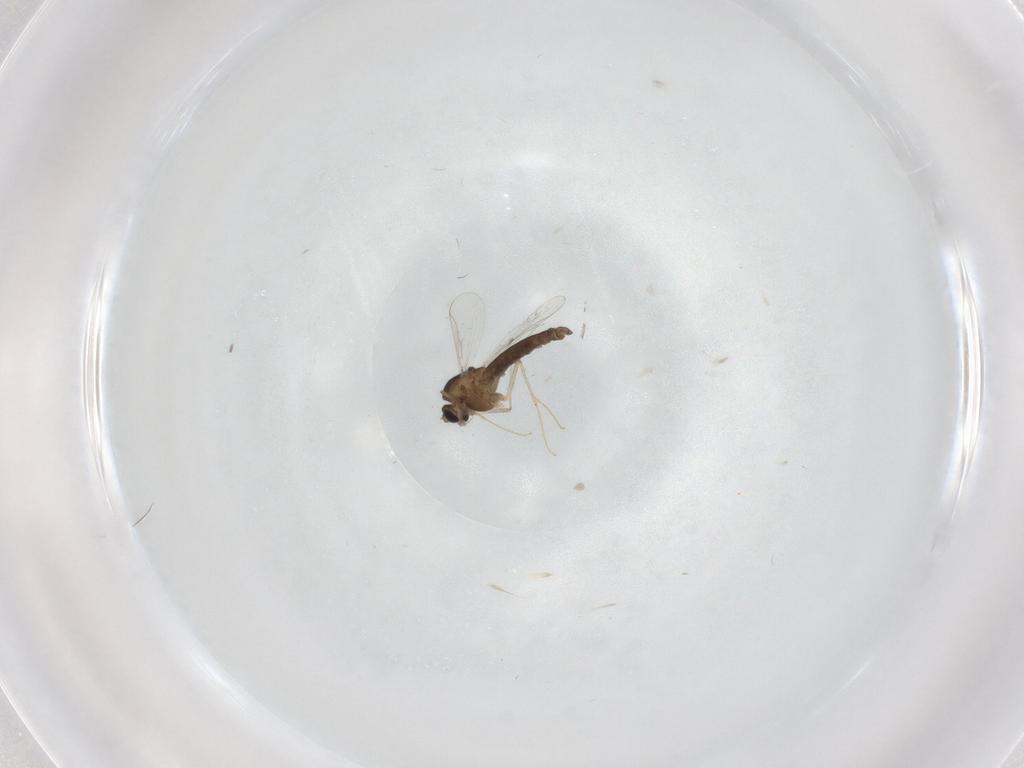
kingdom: Animalia
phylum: Arthropoda
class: Insecta
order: Diptera
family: Chironomidae
